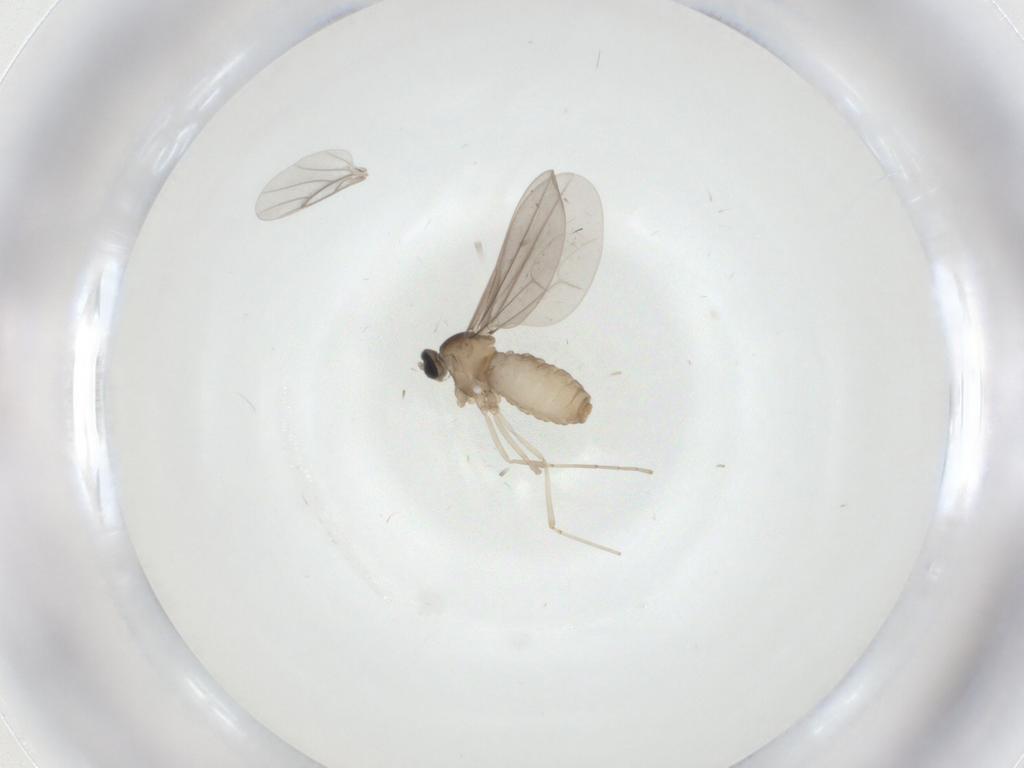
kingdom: Animalia
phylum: Arthropoda
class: Insecta
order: Diptera
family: Cecidomyiidae
